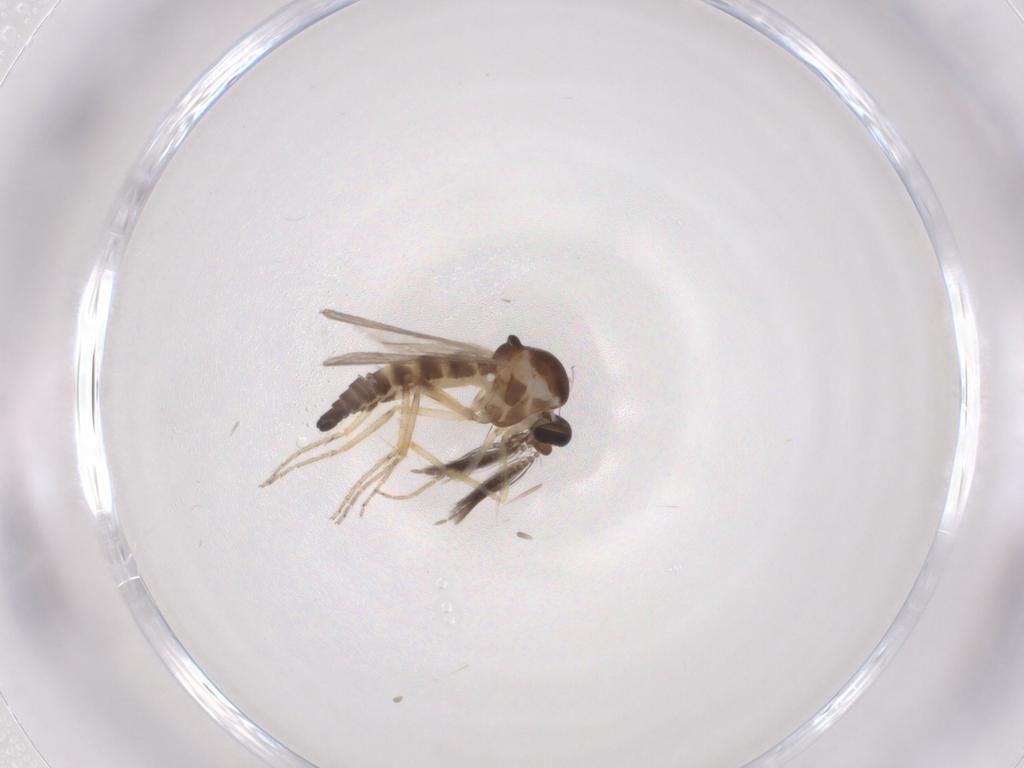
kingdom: Animalia
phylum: Arthropoda
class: Insecta
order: Diptera
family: Ceratopogonidae
